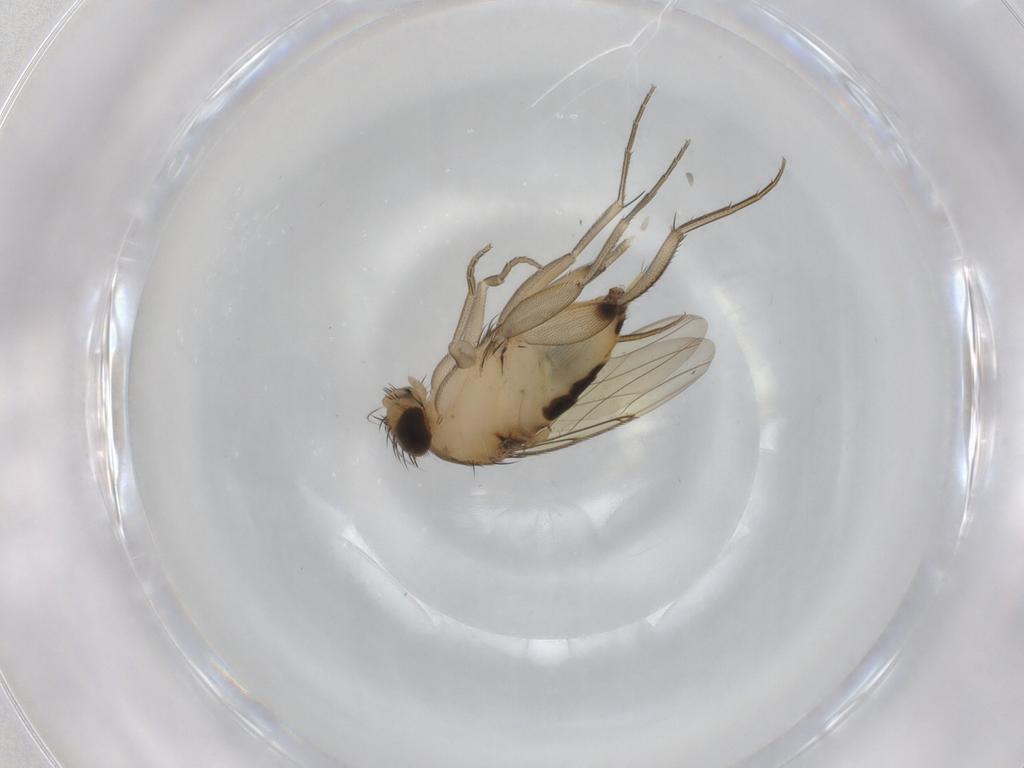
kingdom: Animalia
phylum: Arthropoda
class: Insecta
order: Diptera
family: Phoridae
